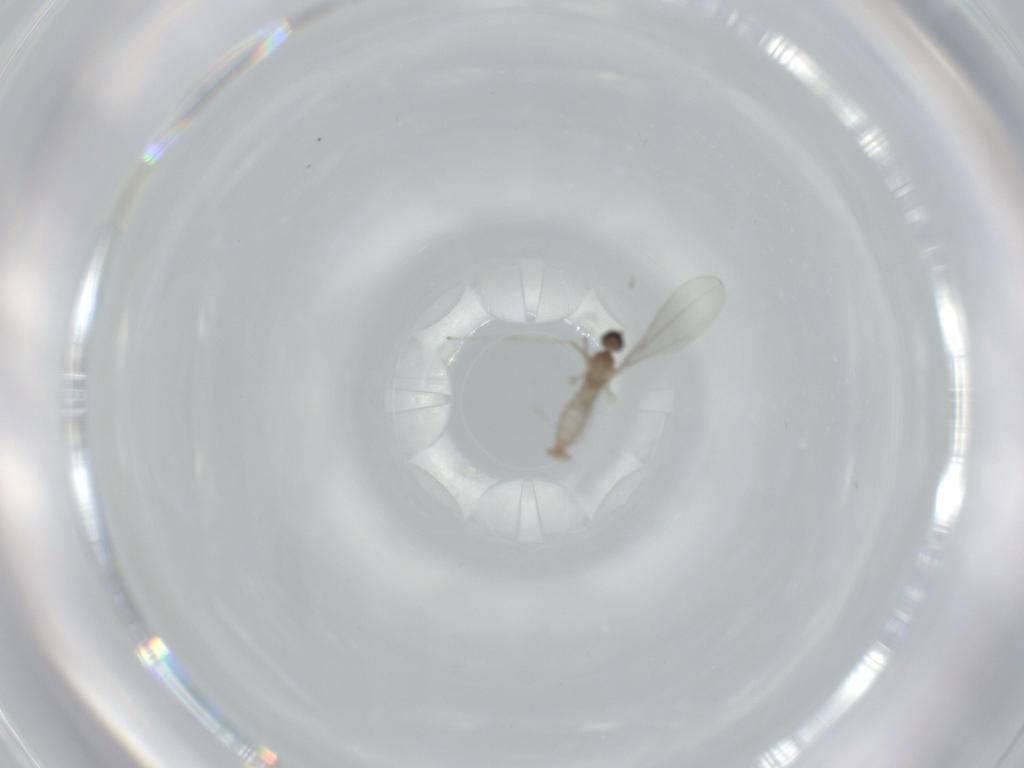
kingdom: Animalia
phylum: Arthropoda
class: Insecta
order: Diptera
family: Cecidomyiidae
